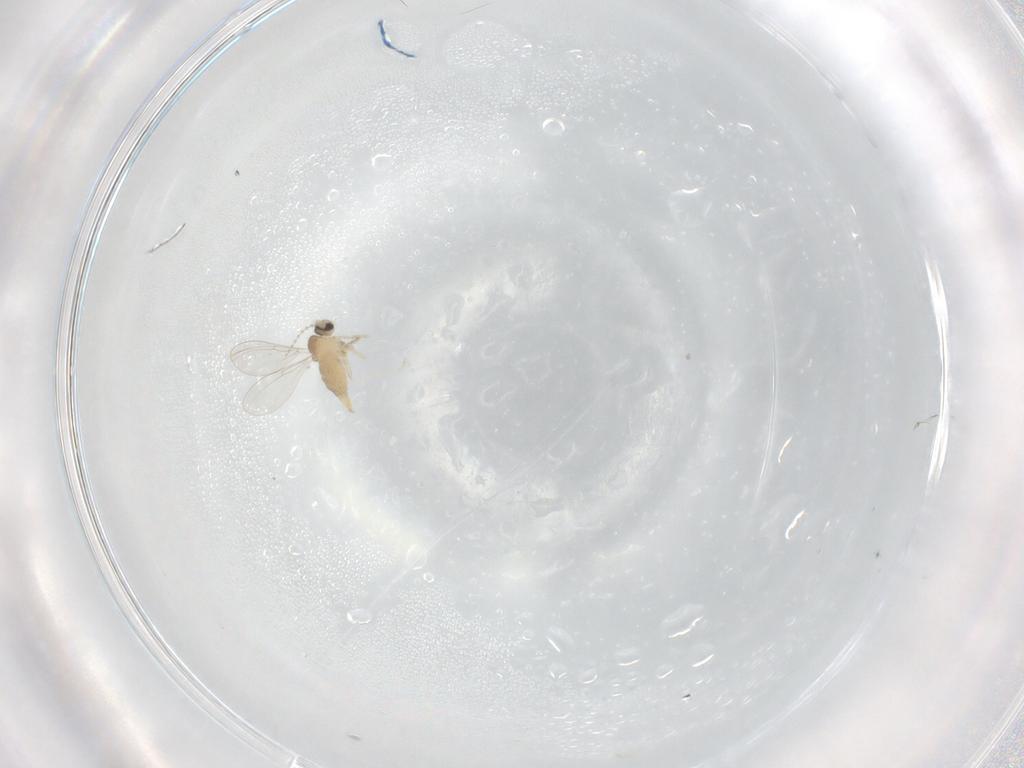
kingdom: Animalia
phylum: Arthropoda
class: Insecta
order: Diptera
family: Cecidomyiidae
